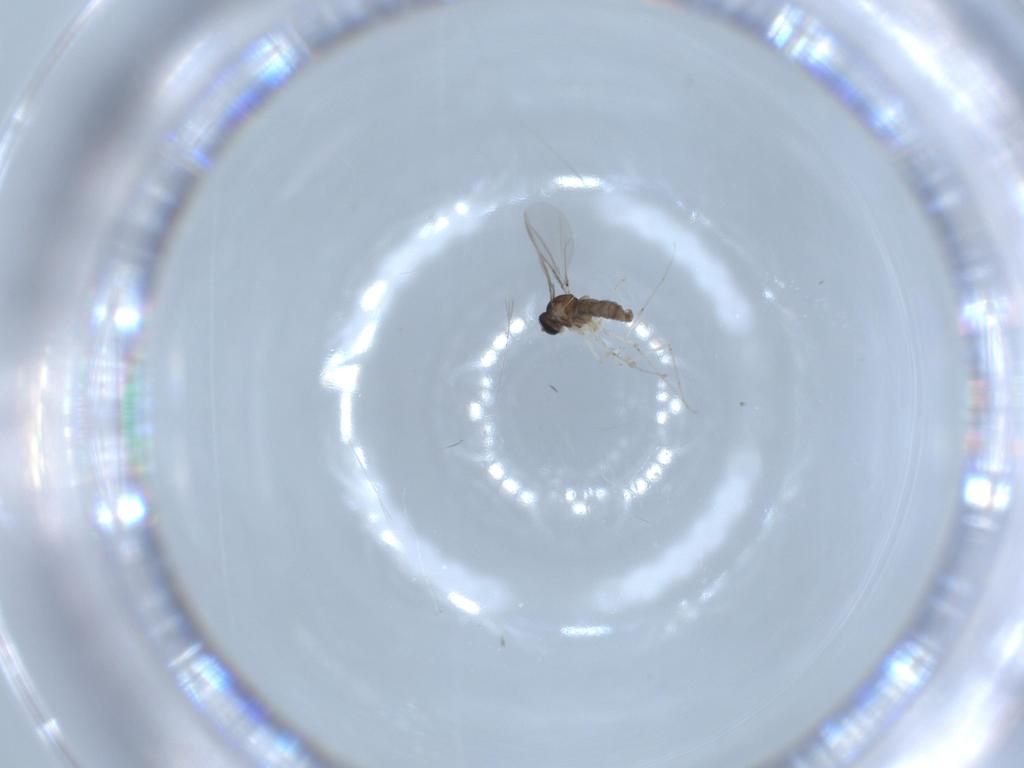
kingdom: Animalia
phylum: Arthropoda
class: Insecta
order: Diptera
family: Cecidomyiidae
